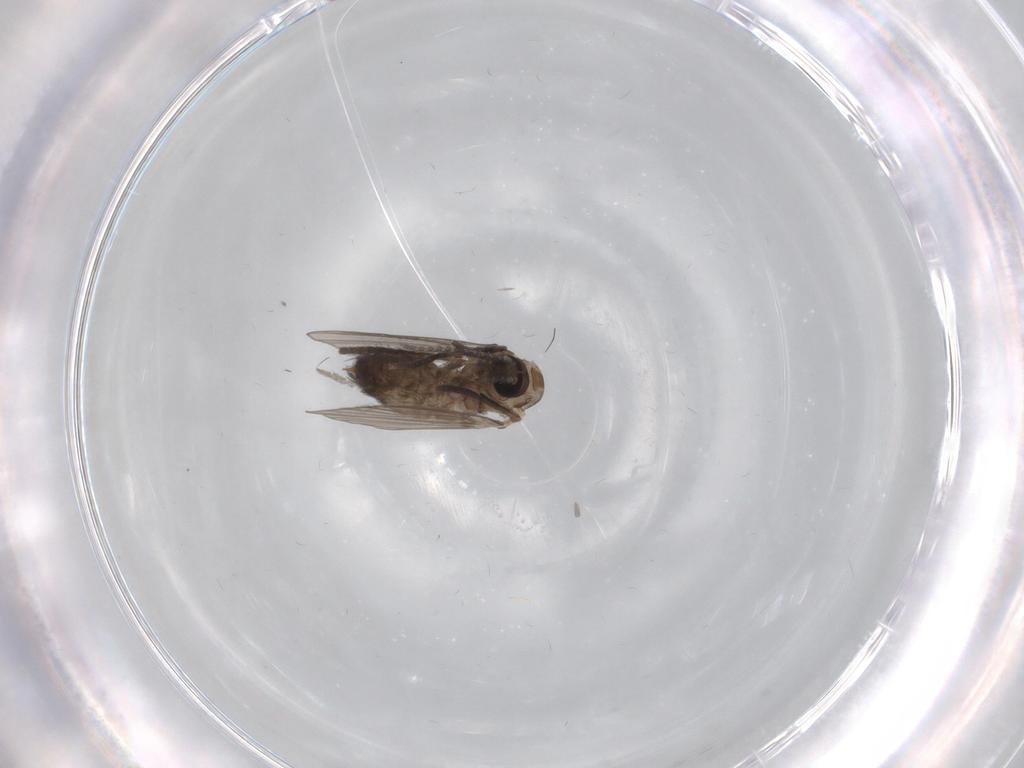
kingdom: Animalia
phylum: Arthropoda
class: Insecta
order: Diptera
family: Psychodidae
